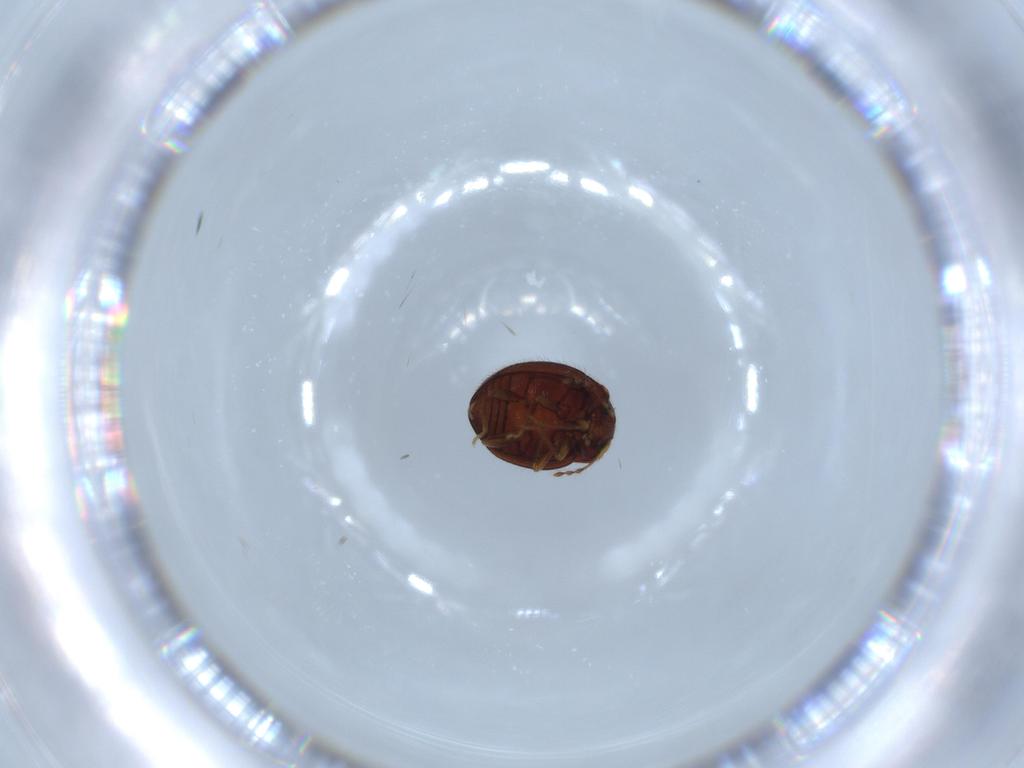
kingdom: Animalia
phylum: Arthropoda
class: Insecta
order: Coleoptera
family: Anamorphidae
